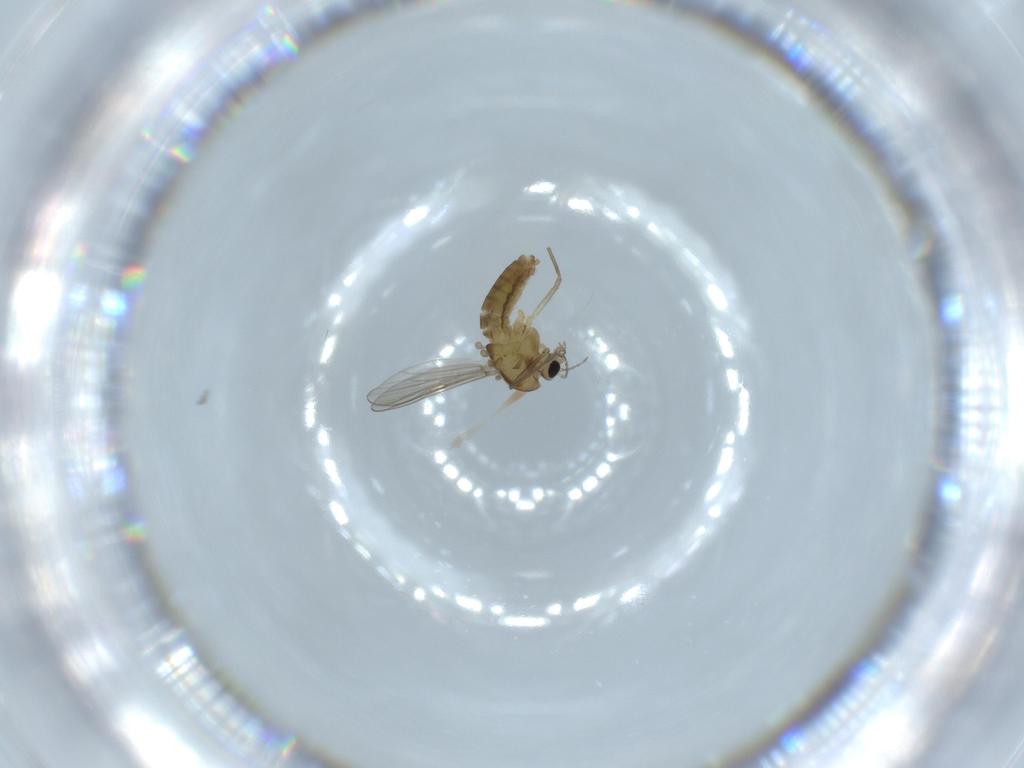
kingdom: Animalia
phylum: Arthropoda
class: Insecta
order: Diptera
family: Chironomidae
